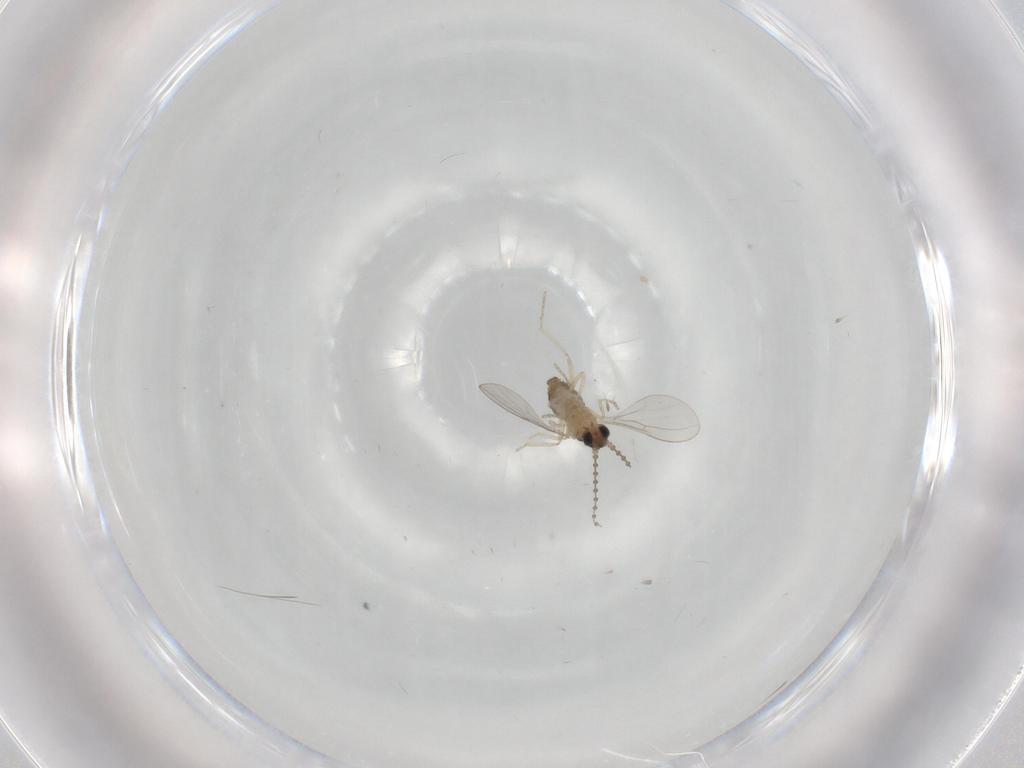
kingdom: Animalia
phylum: Arthropoda
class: Insecta
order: Diptera
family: Cecidomyiidae
